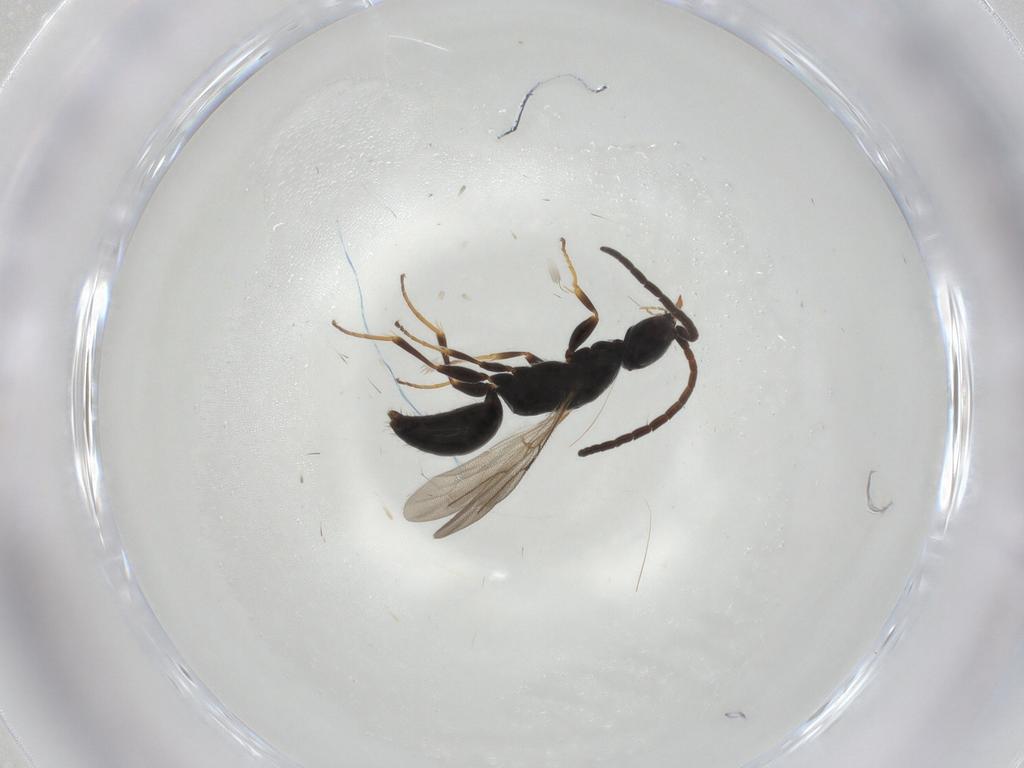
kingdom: Animalia
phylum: Arthropoda
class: Insecta
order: Hymenoptera
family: Bethylidae
